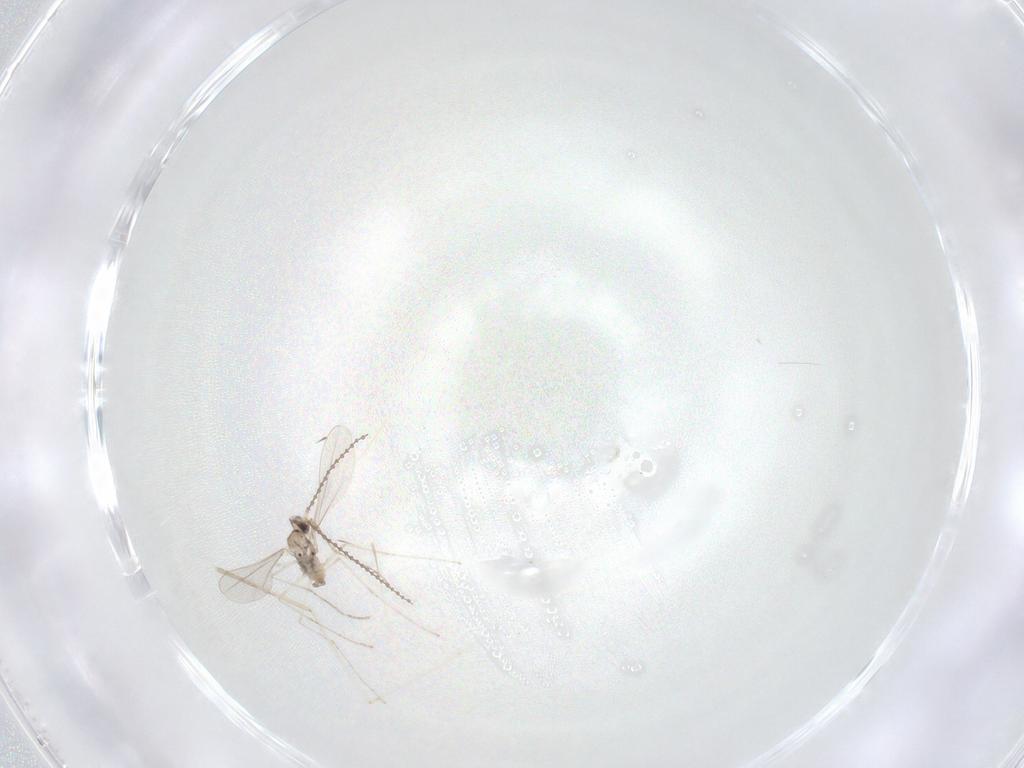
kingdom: Animalia
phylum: Arthropoda
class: Insecta
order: Diptera
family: Cecidomyiidae
